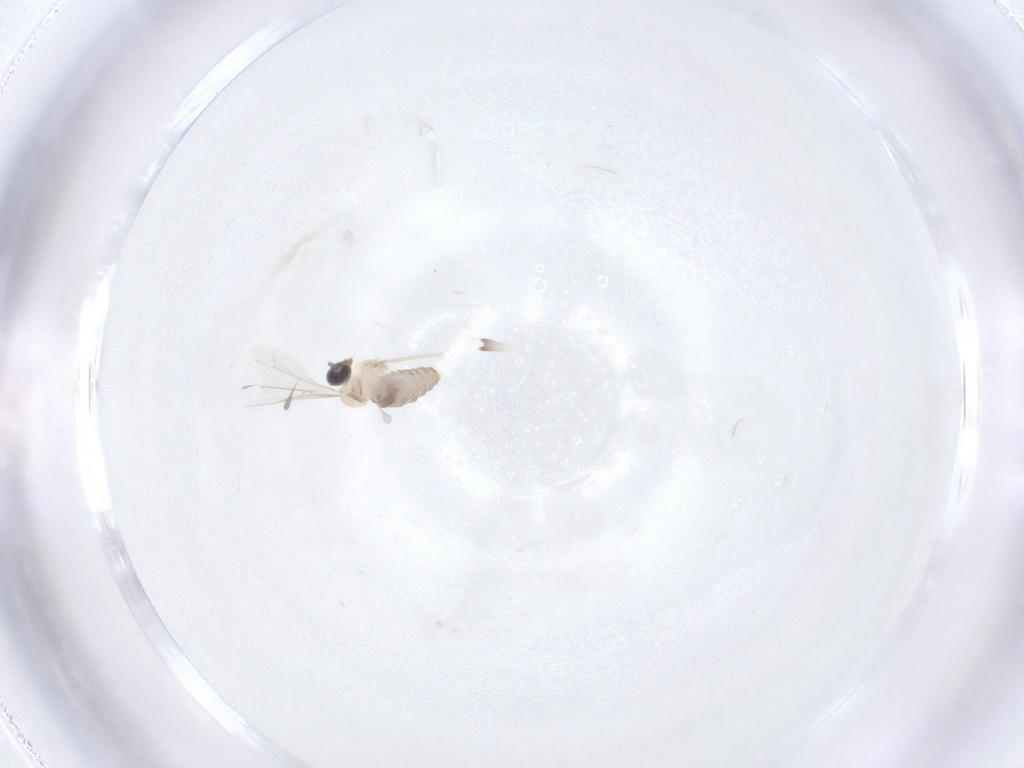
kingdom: Animalia
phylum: Arthropoda
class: Insecta
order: Diptera
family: Cecidomyiidae
